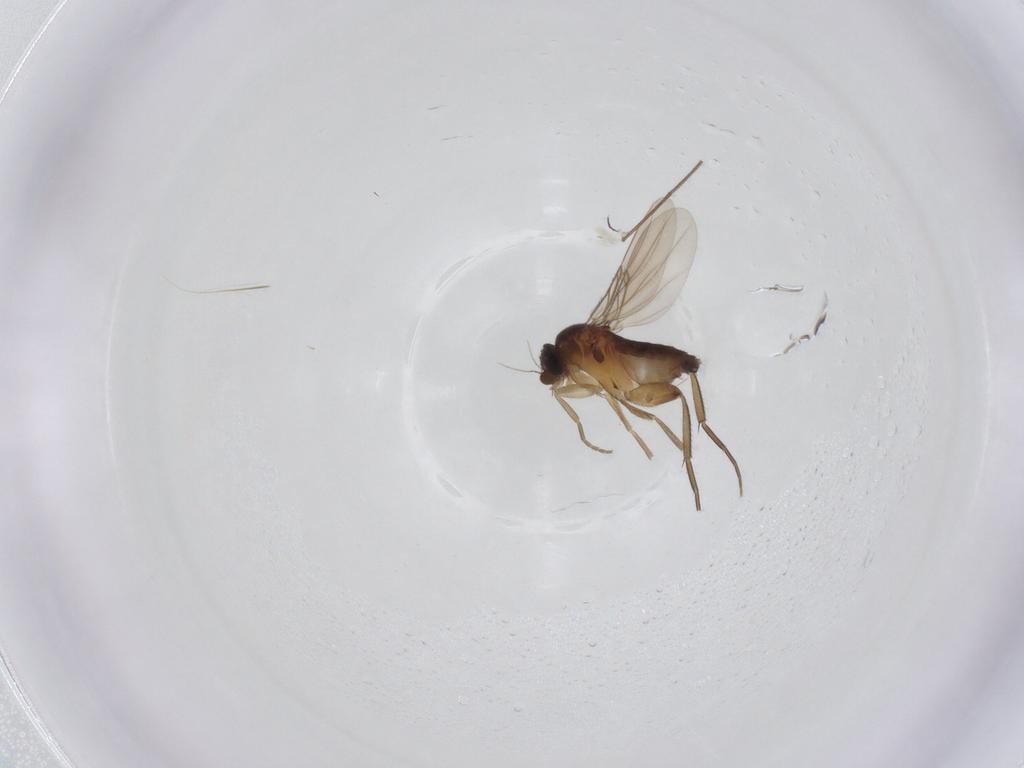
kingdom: Animalia
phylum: Arthropoda
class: Insecta
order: Diptera
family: Phoridae
